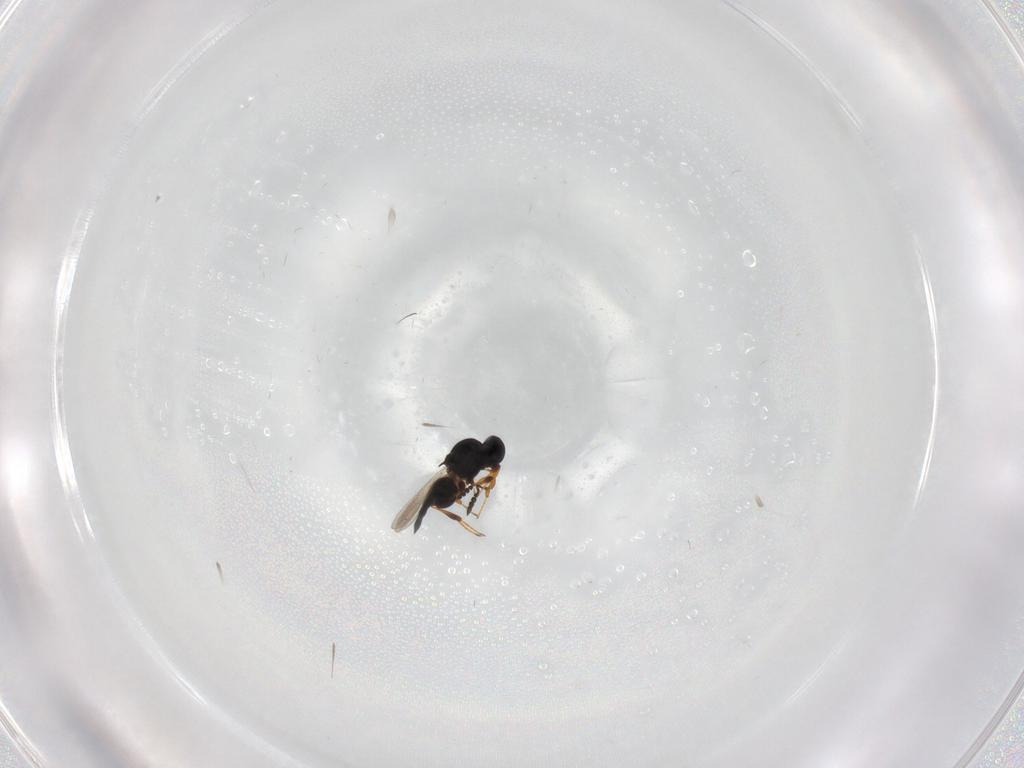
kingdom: Animalia
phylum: Arthropoda
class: Insecta
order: Hymenoptera
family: Platygastridae
